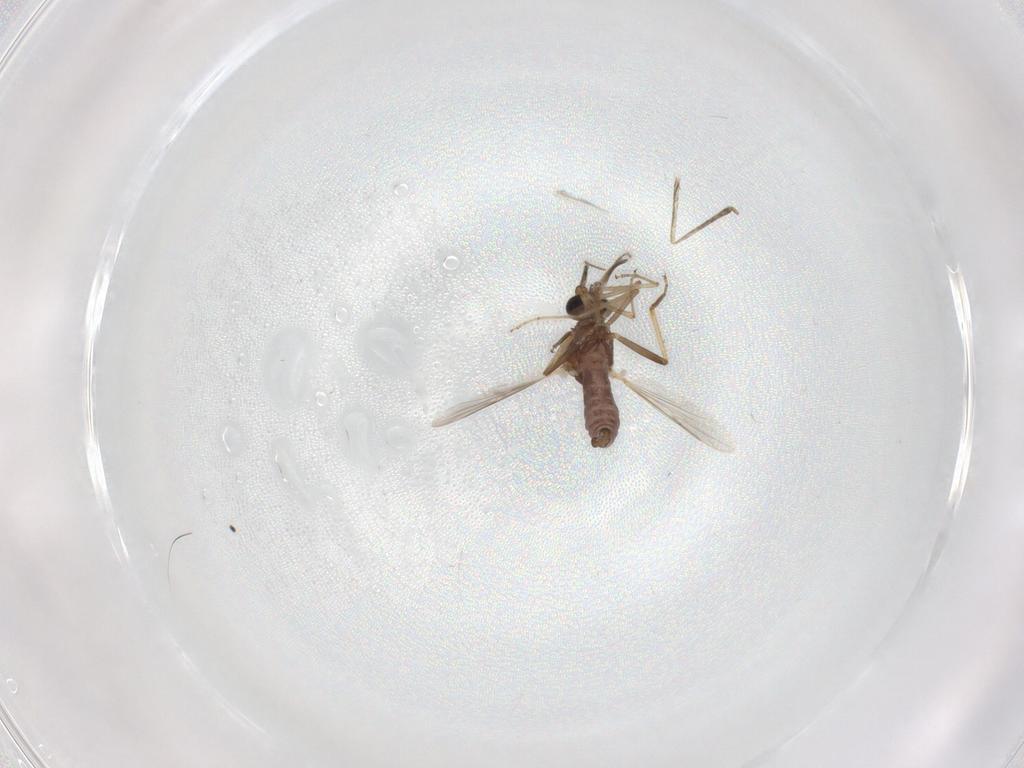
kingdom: Animalia
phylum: Arthropoda
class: Insecta
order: Diptera
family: Ceratopogonidae
